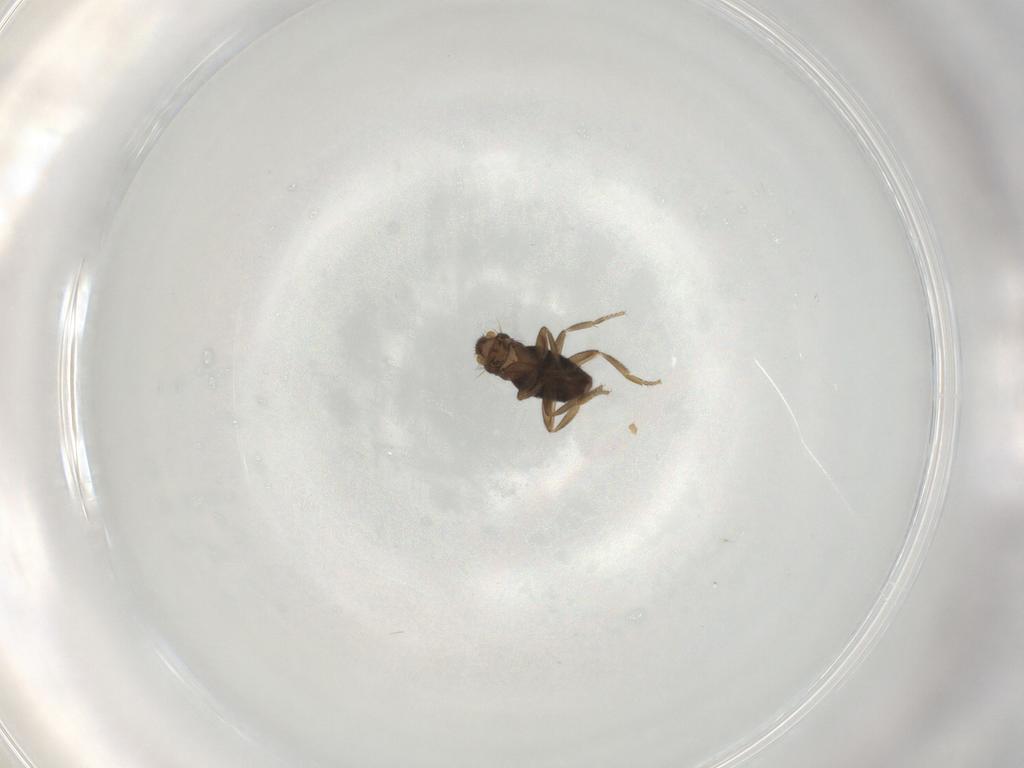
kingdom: Animalia
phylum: Arthropoda
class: Insecta
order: Diptera
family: Phoridae
